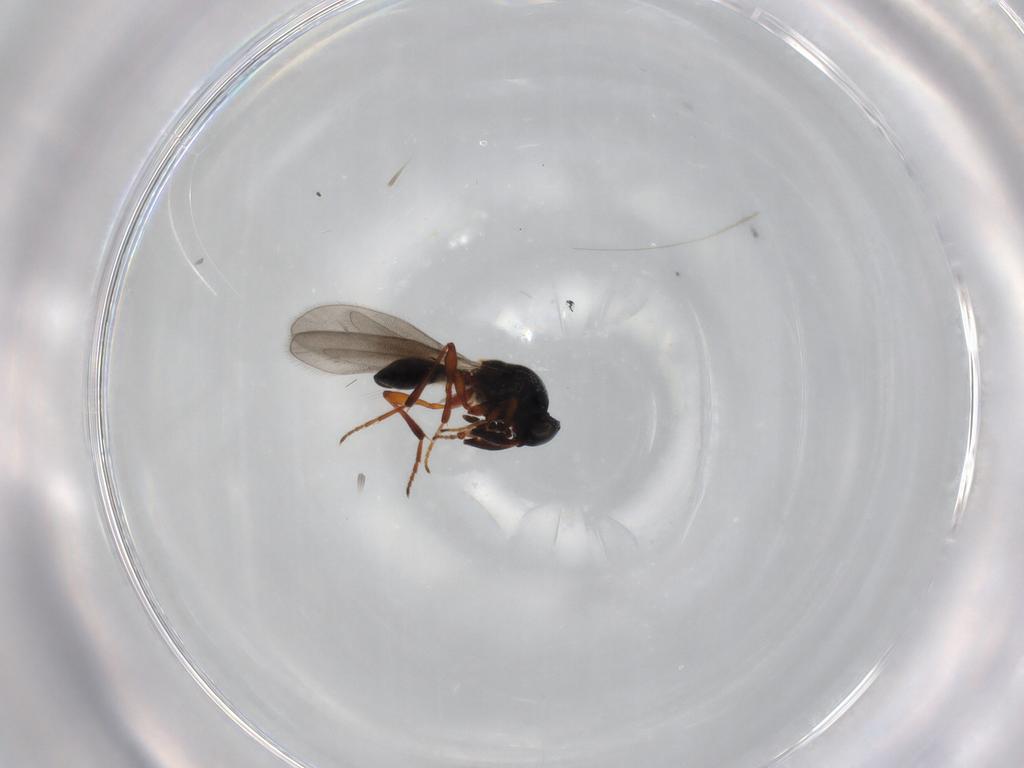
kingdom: Animalia
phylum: Arthropoda
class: Insecta
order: Hymenoptera
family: Platygastridae
